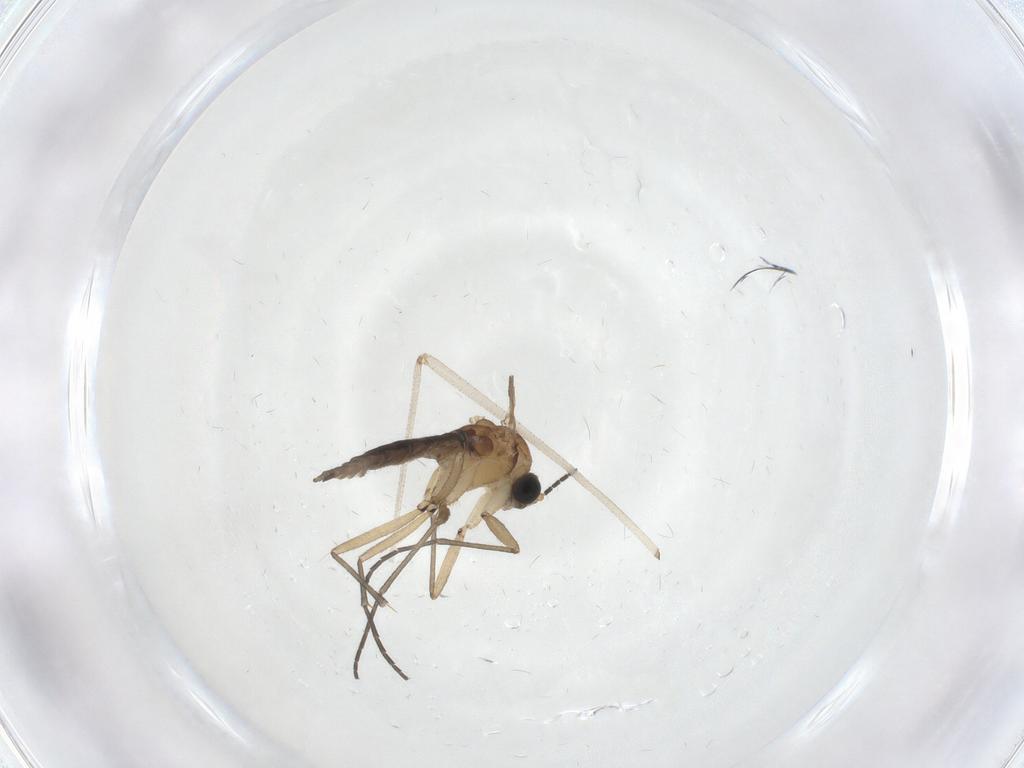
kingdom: Animalia
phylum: Arthropoda
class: Insecta
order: Diptera
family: Sciaridae
